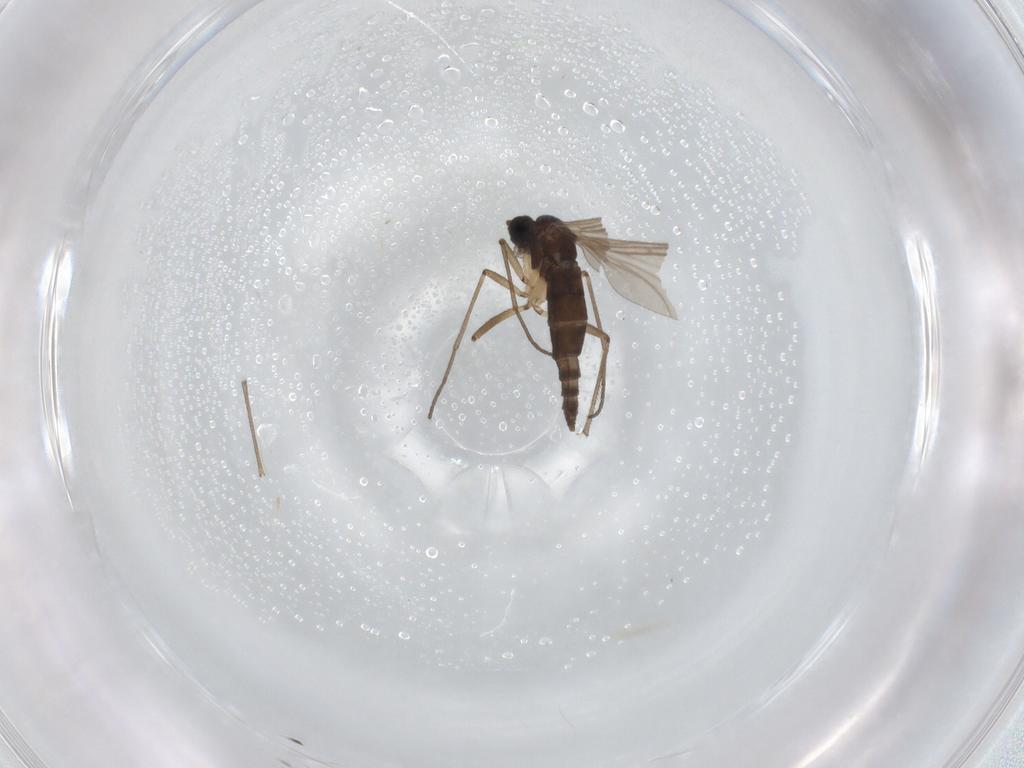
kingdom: Animalia
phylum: Arthropoda
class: Insecta
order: Diptera
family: Sciaridae
